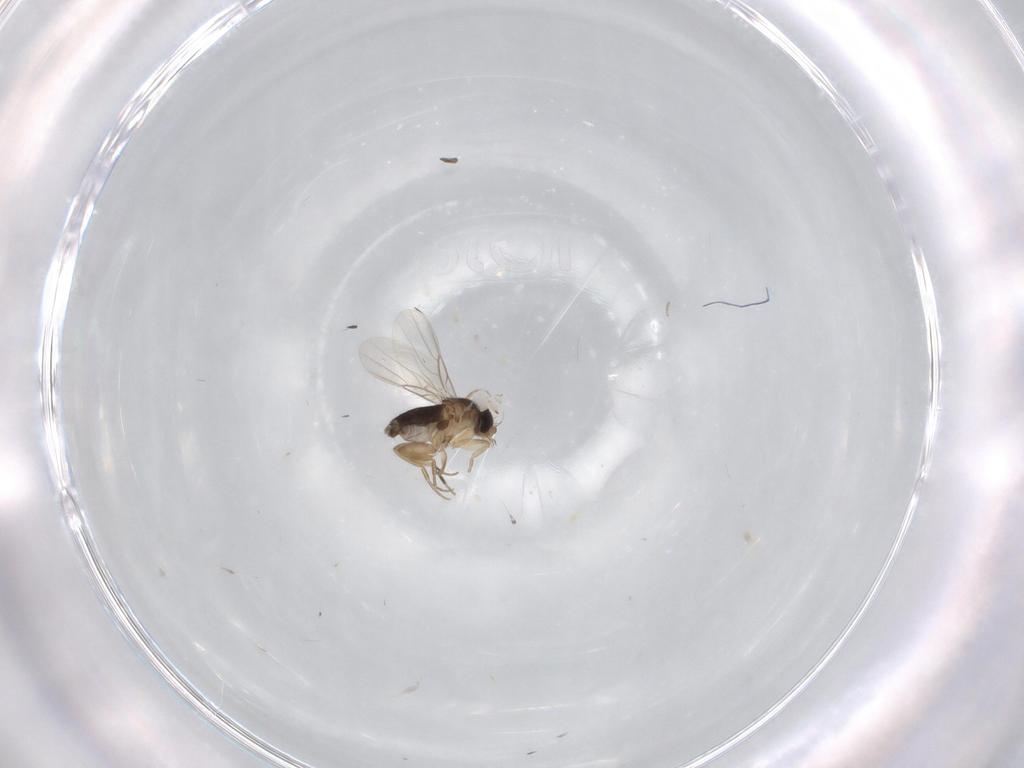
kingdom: Animalia
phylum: Arthropoda
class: Insecta
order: Diptera
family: Phoridae
